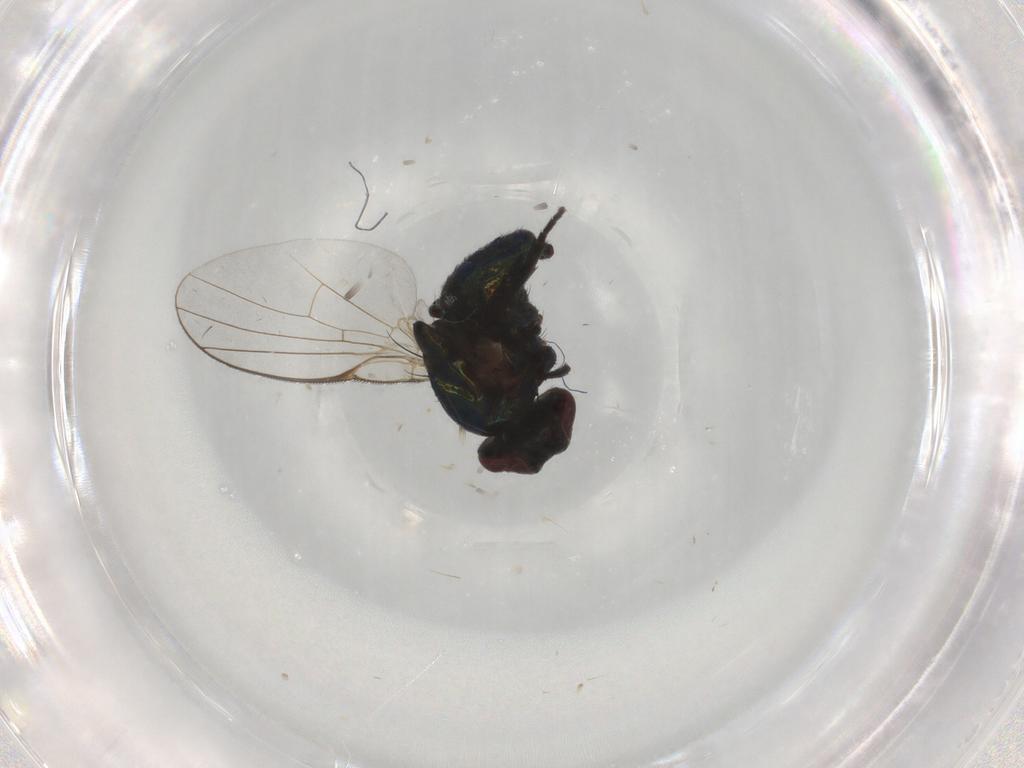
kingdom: Animalia
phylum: Arthropoda
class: Insecta
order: Diptera
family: Agromyzidae
